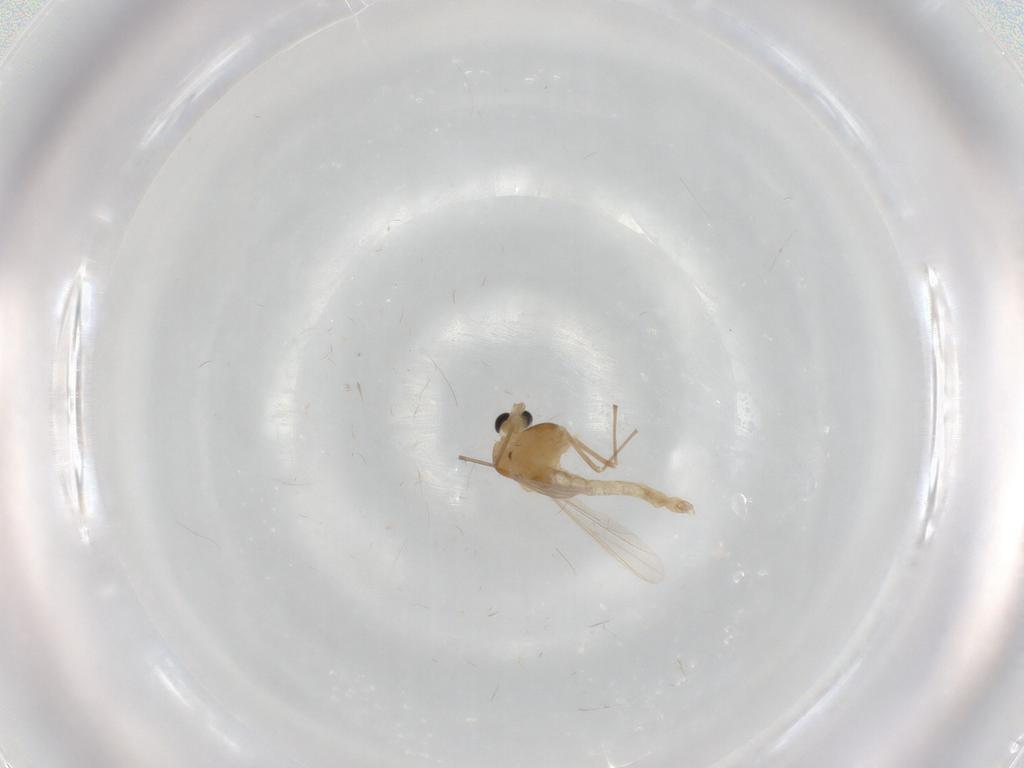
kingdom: Animalia
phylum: Arthropoda
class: Insecta
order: Diptera
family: Chironomidae
